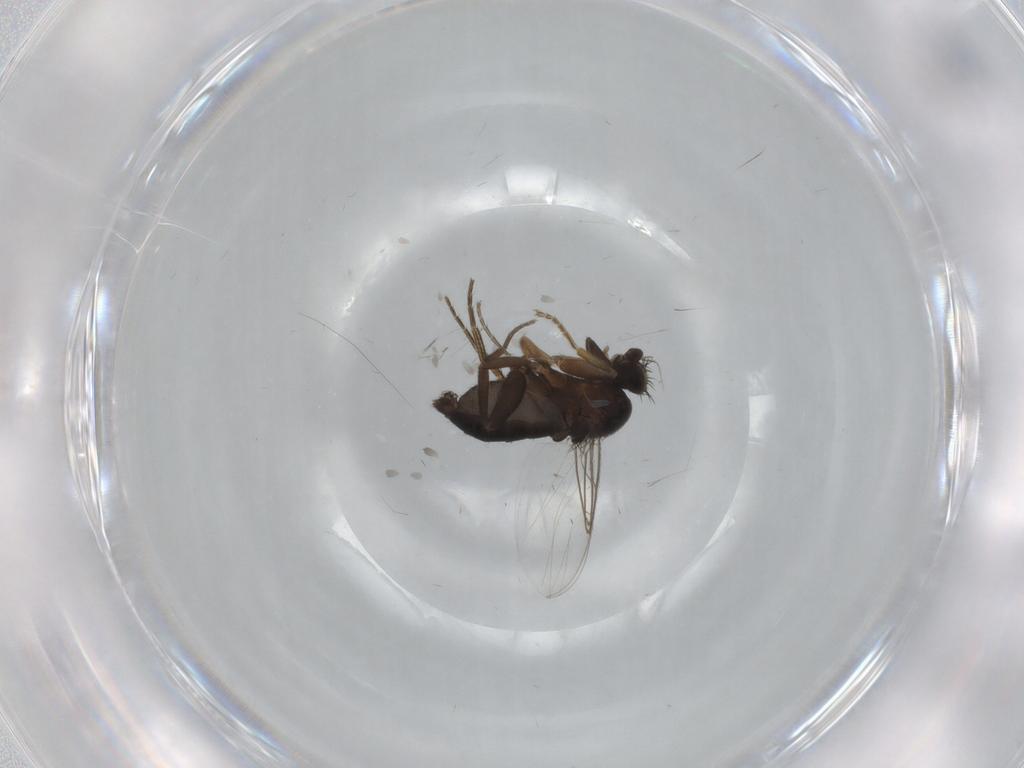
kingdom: Animalia
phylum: Arthropoda
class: Insecta
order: Diptera
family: Phoridae
